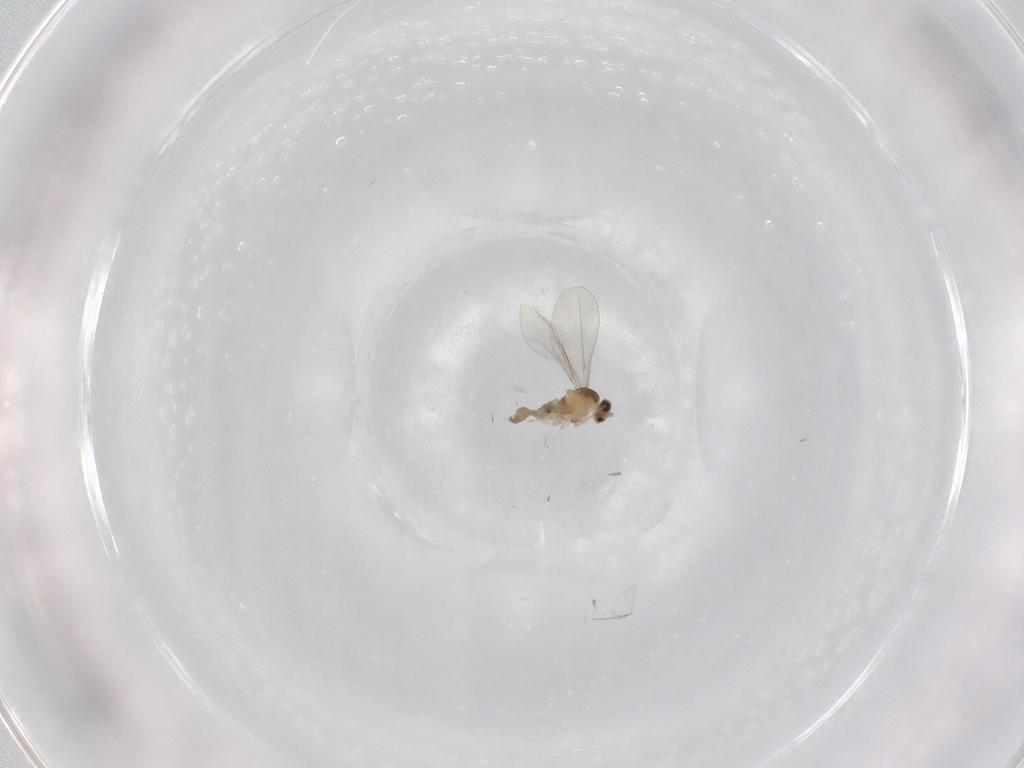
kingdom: Animalia
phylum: Arthropoda
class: Insecta
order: Diptera
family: Cecidomyiidae
